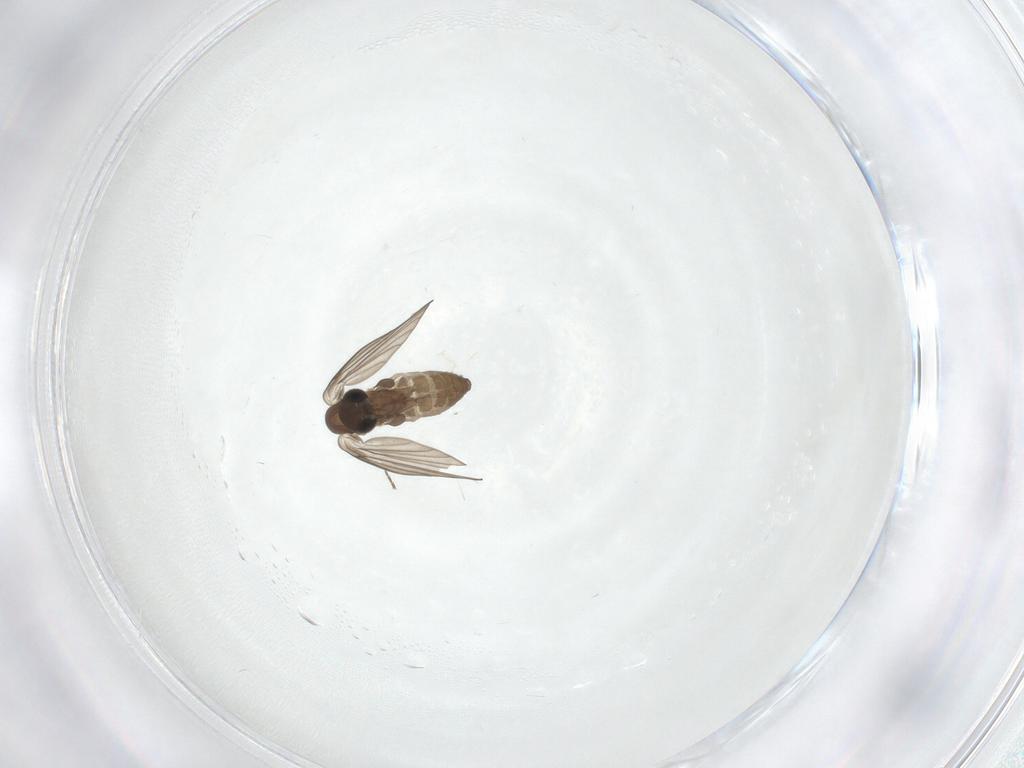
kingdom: Animalia
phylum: Arthropoda
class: Insecta
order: Diptera
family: Psychodidae
